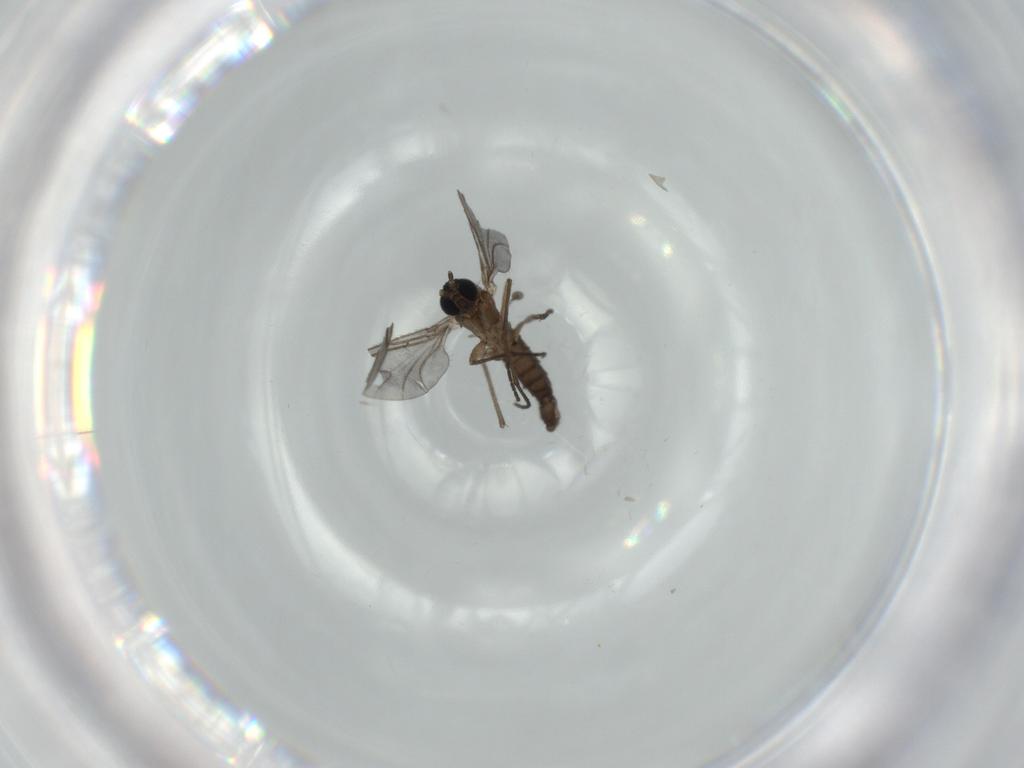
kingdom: Animalia
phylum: Arthropoda
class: Insecta
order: Diptera
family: Sciaridae
